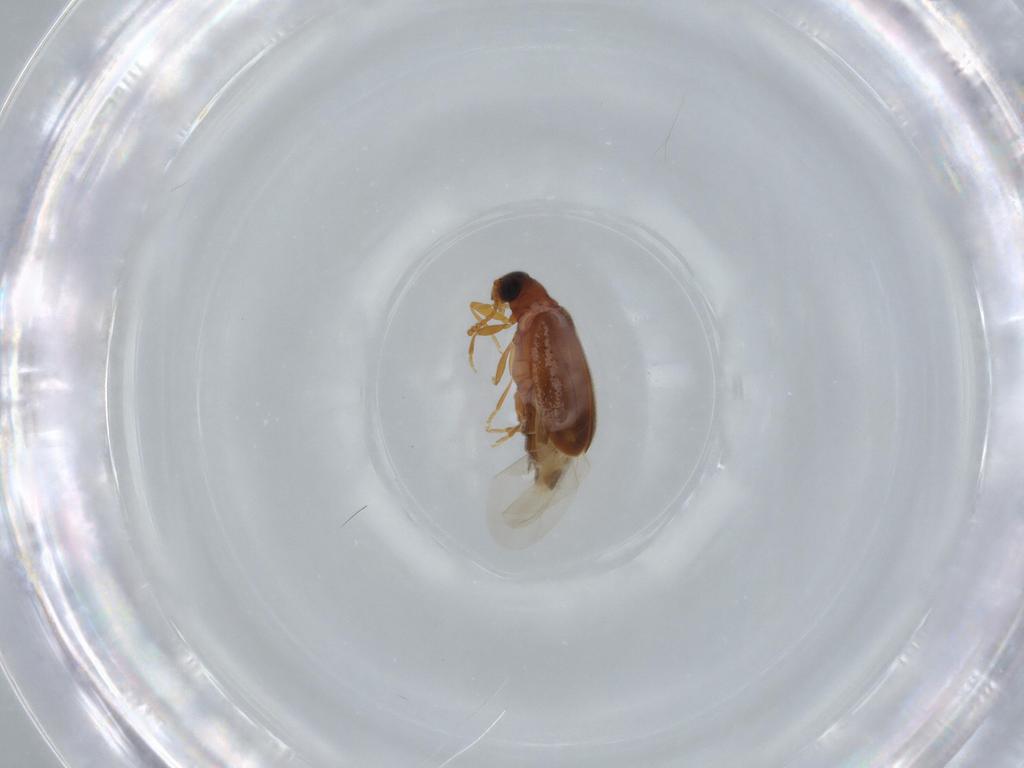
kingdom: Animalia
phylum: Arthropoda
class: Insecta
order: Coleoptera
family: Aderidae
